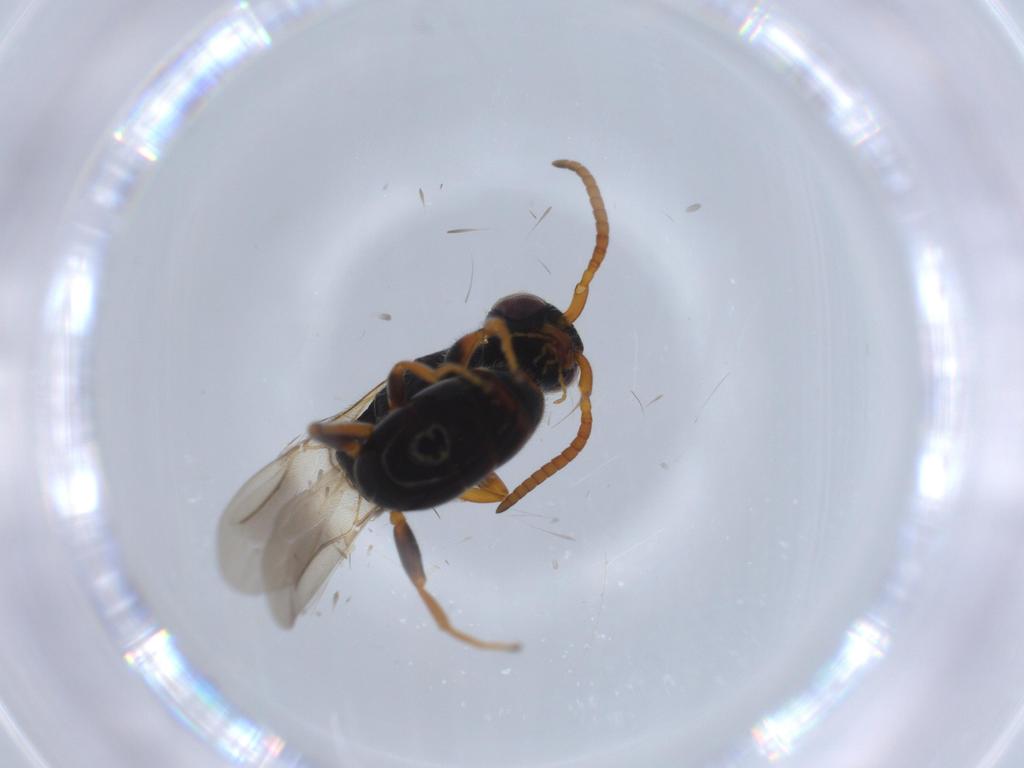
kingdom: Animalia
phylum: Arthropoda
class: Insecta
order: Hymenoptera
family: Bethylidae
